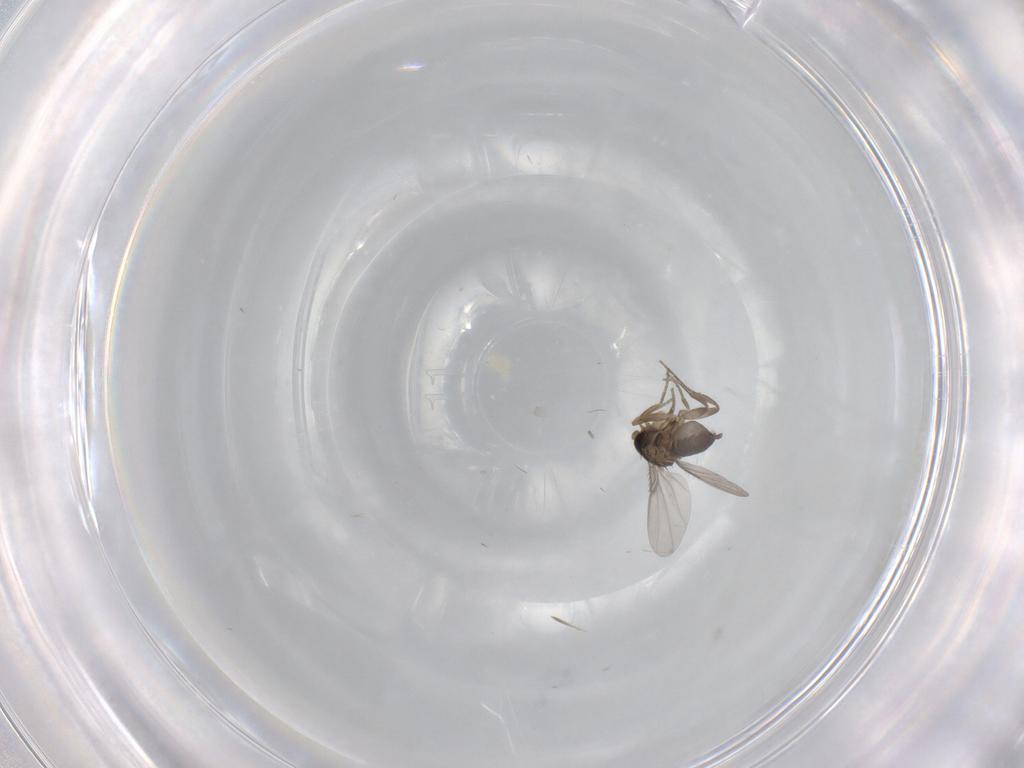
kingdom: Animalia
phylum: Arthropoda
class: Insecta
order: Diptera
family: Phoridae
